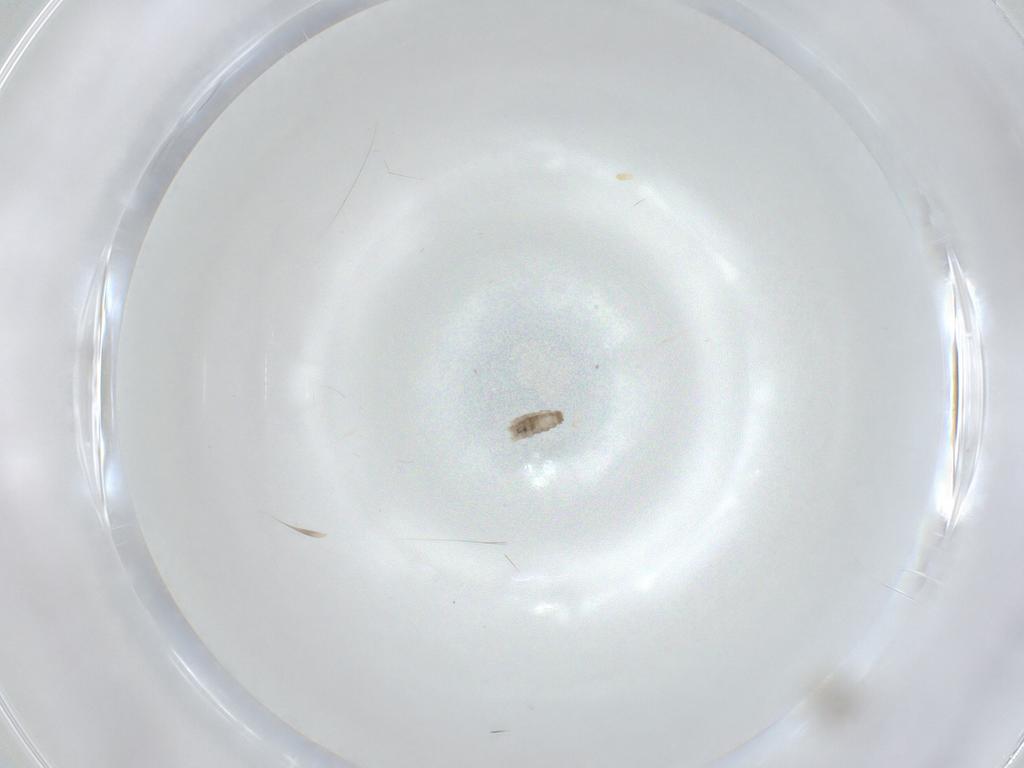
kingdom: Animalia
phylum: Arthropoda
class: Insecta
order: Diptera
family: Cecidomyiidae
